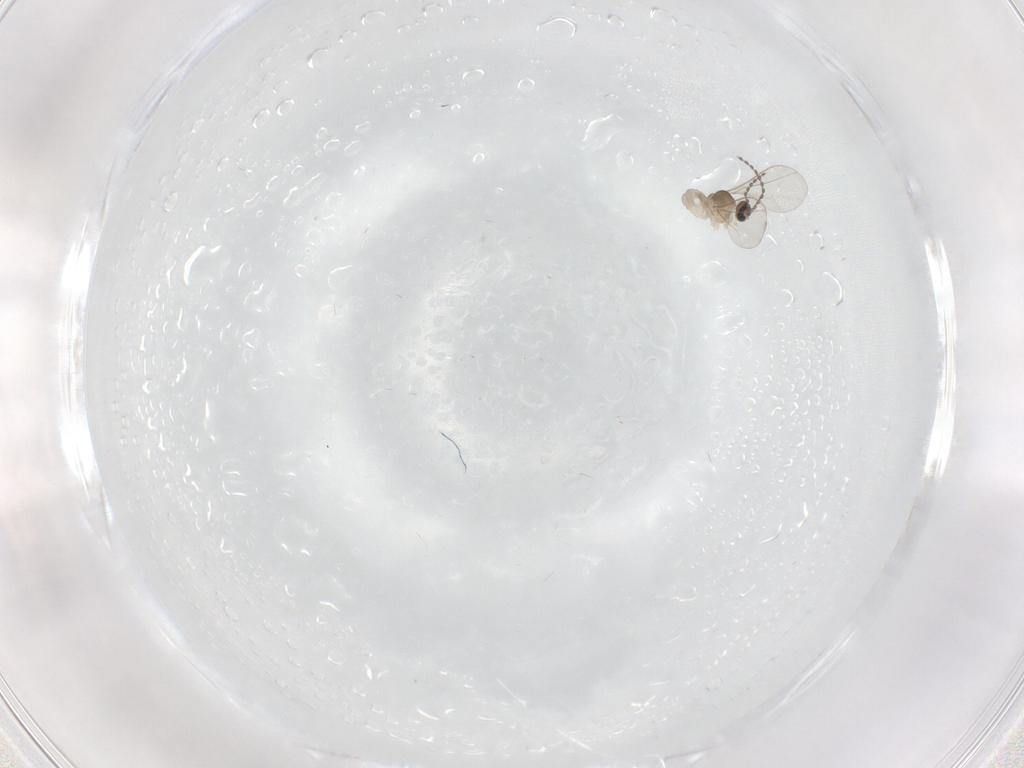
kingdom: Animalia
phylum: Arthropoda
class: Insecta
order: Diptera
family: Cecidomyiidae
